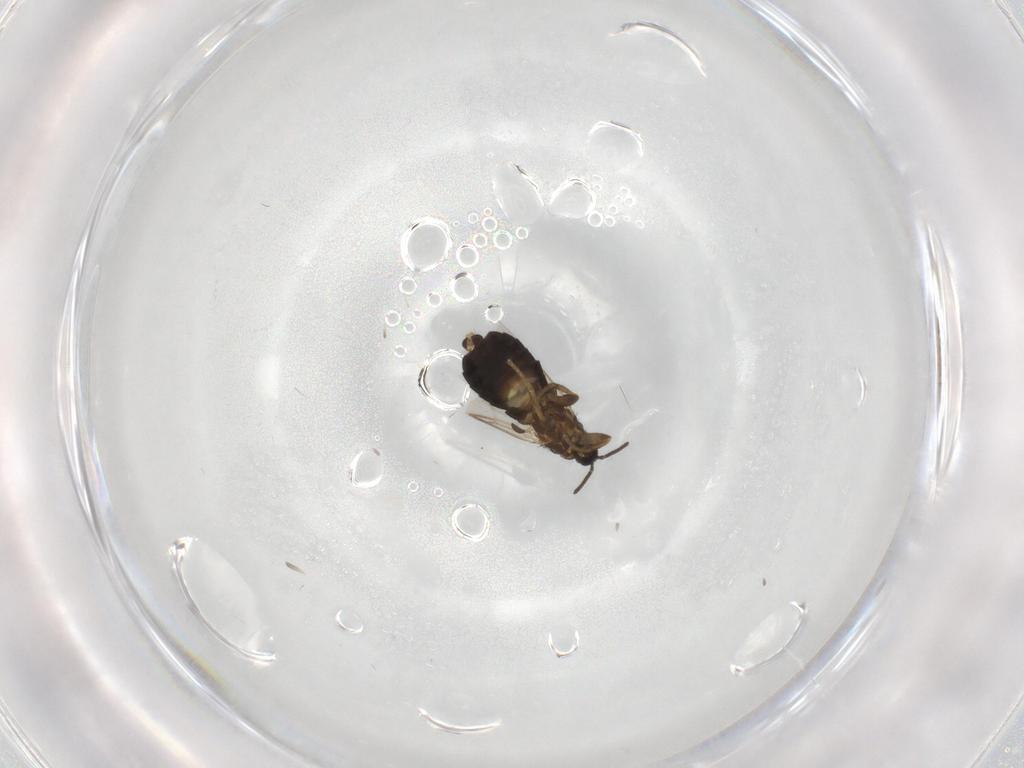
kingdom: Animalia
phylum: Arthropoda
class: Insecta
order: Diptera
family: Scatopsidae
